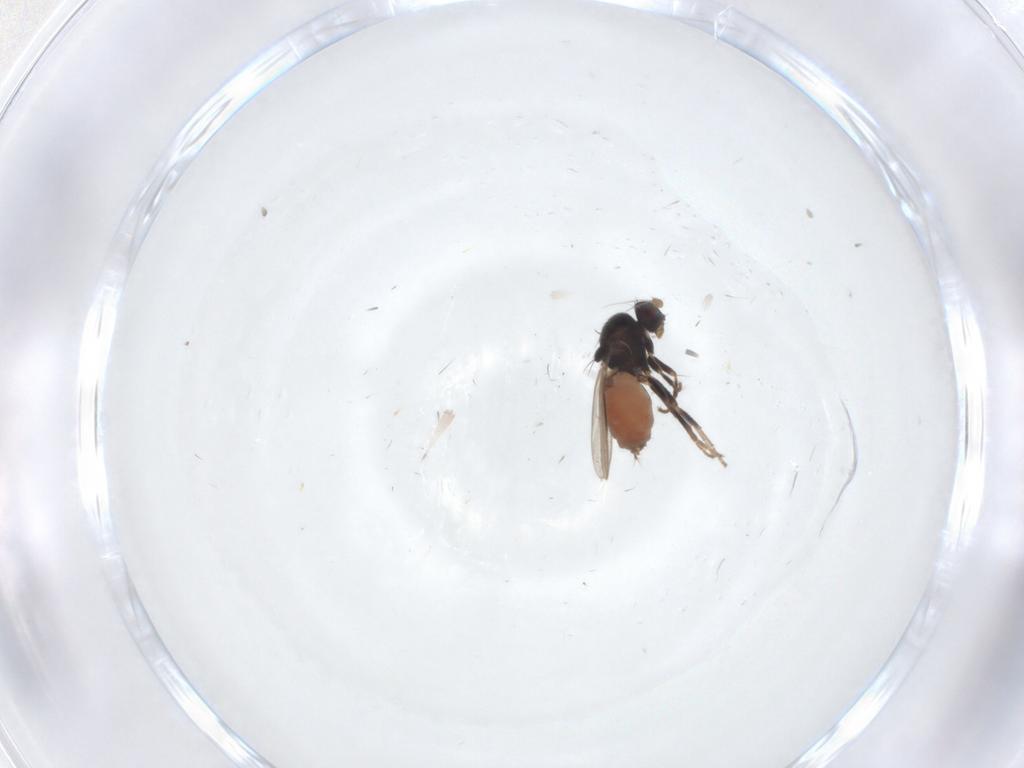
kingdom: Animalia
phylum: Arthropoda
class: Insecta
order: Diptera
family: Sphaeroceridae
